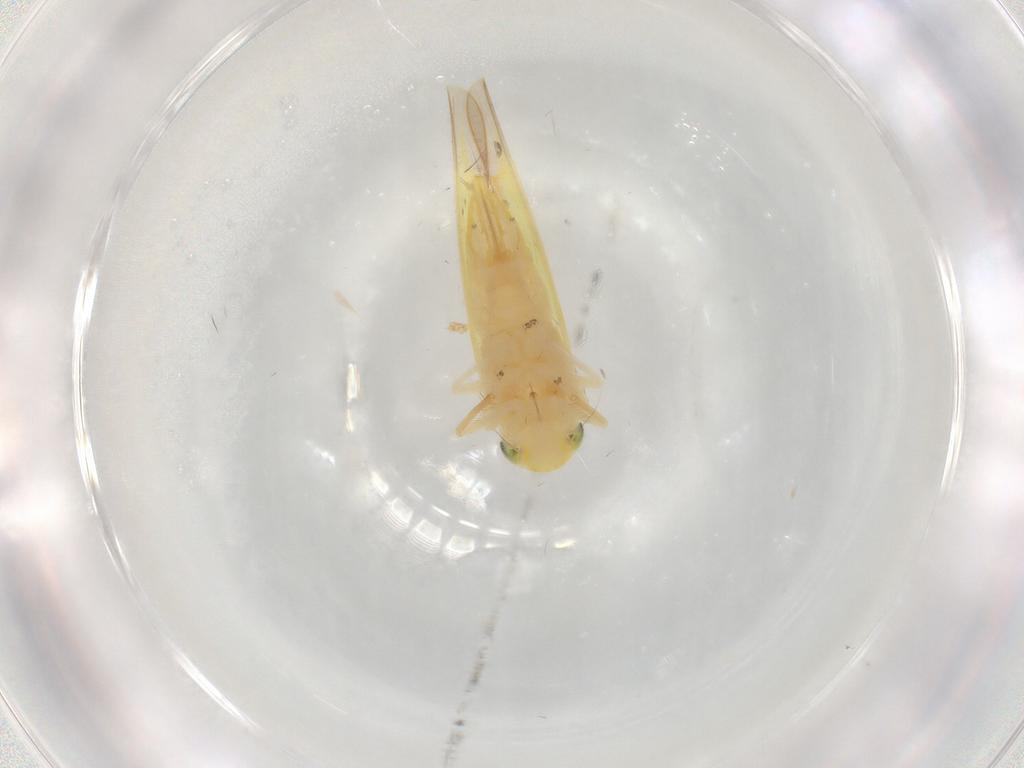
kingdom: Animalia
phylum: Arthropoda
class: Insecta
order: Hemiptera
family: Cicadellidae
